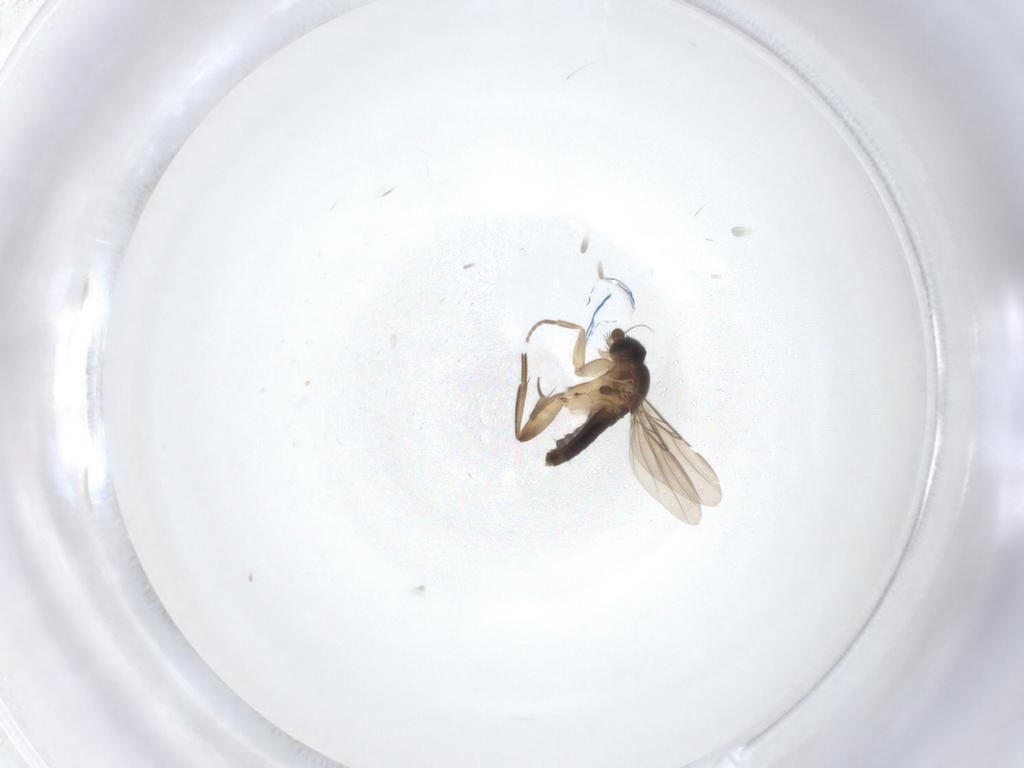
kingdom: Animalia
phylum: Arthropoda
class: Insecta
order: Diptera
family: Phoridae
